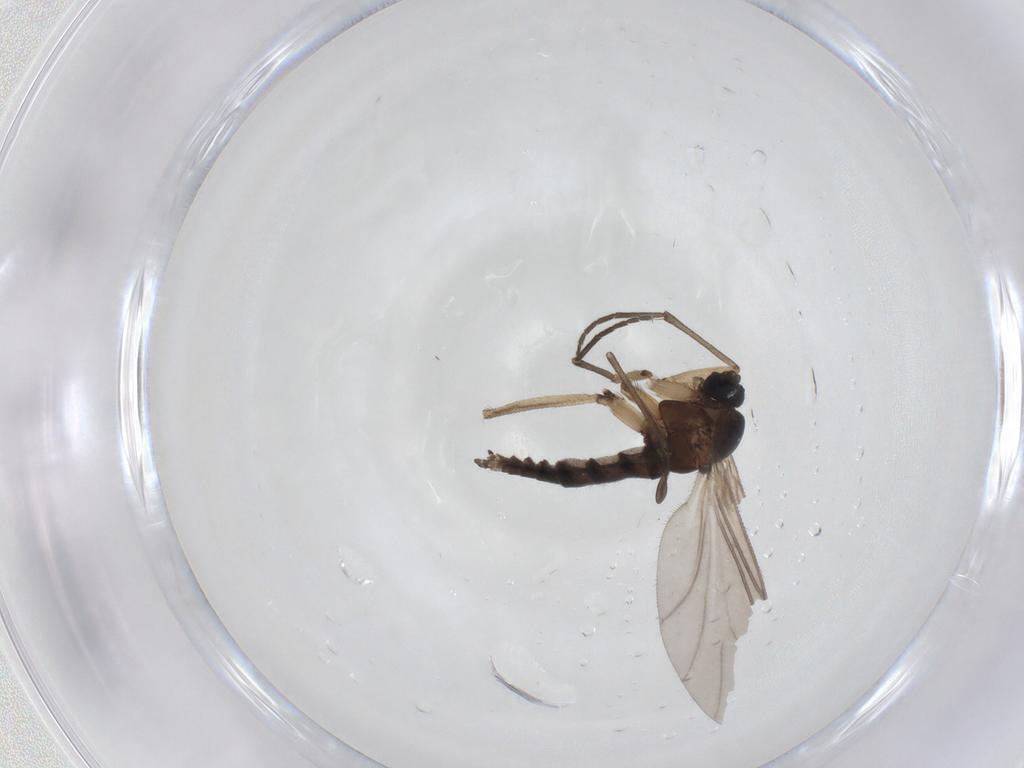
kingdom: Animalia
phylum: Arthropoda
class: Insecta
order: Diptera
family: Sciaridae
